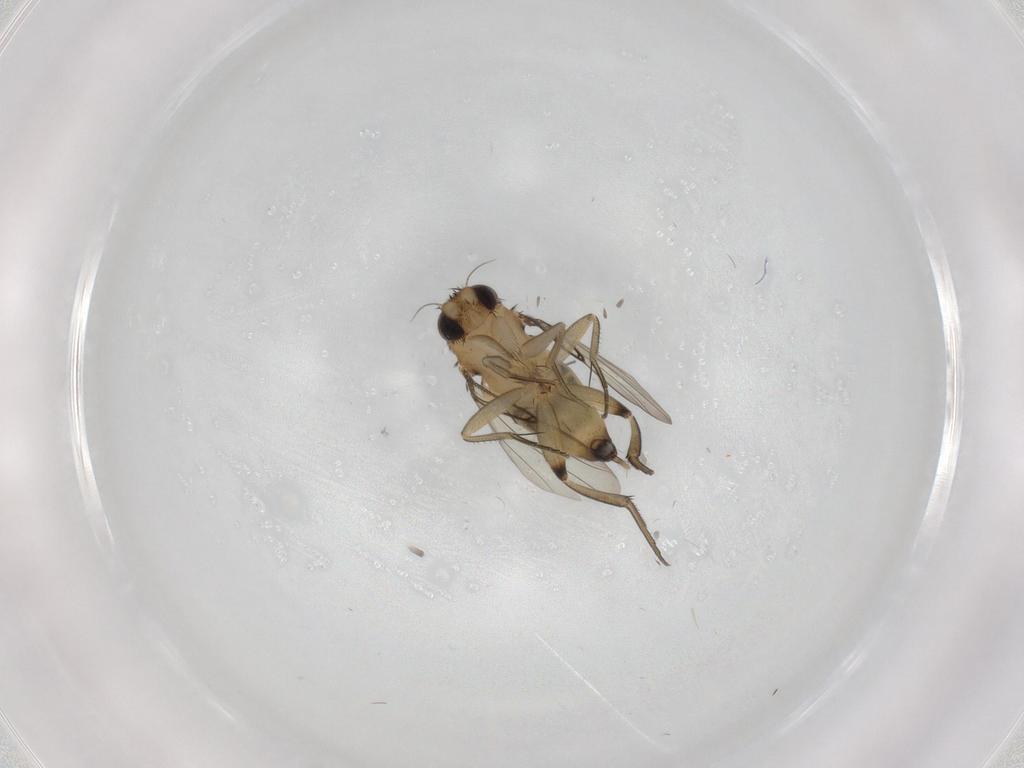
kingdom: Animalia
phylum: Arthropoda
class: Insecta
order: Diptera
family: Phoridae
